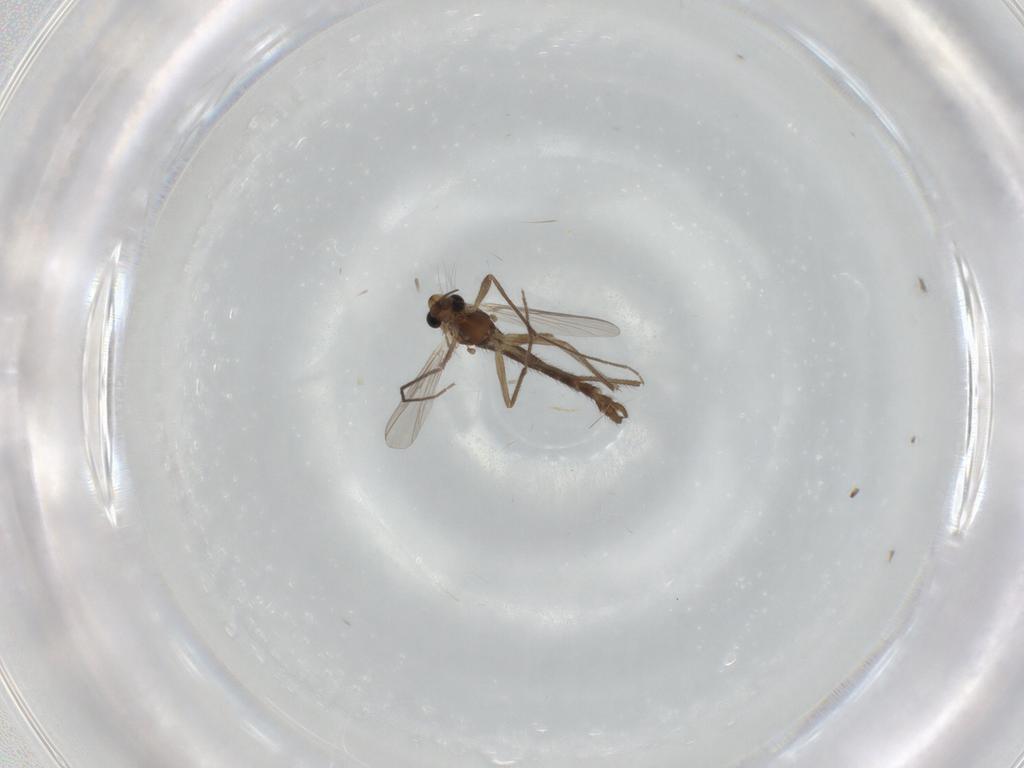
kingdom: Animalia
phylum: Arthropoda
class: Insecta
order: Diptera
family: Chironomidae
